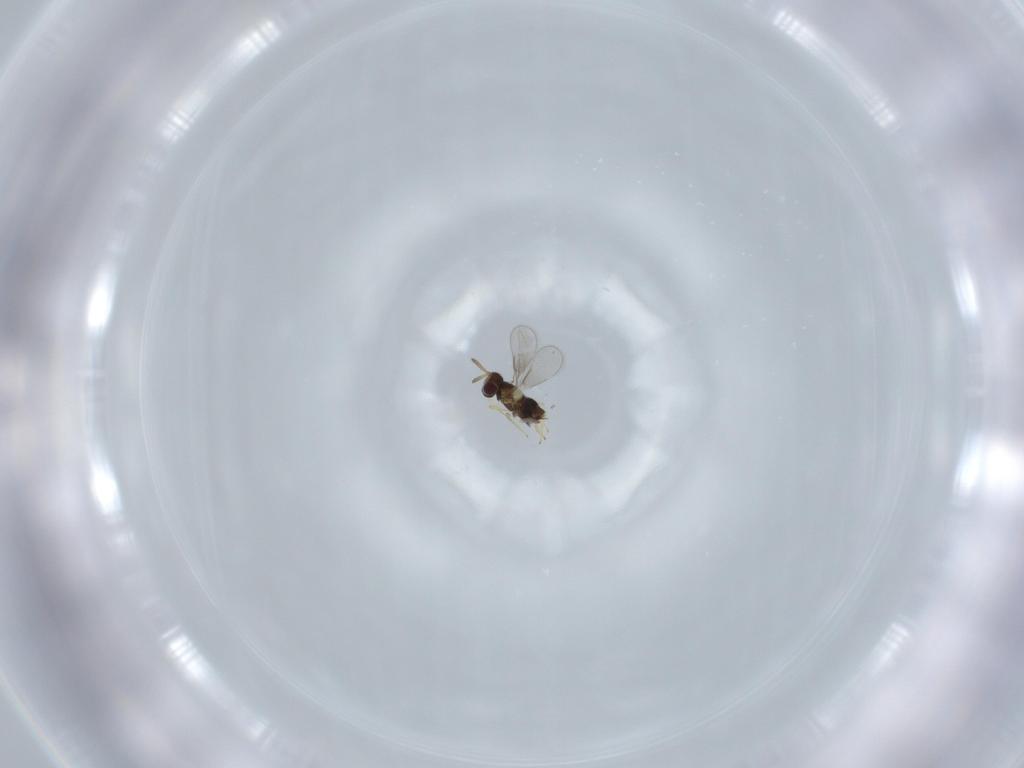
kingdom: Animalia
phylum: Arthropoda
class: Insecta
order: Hymenoptera
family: Aphelinidae
